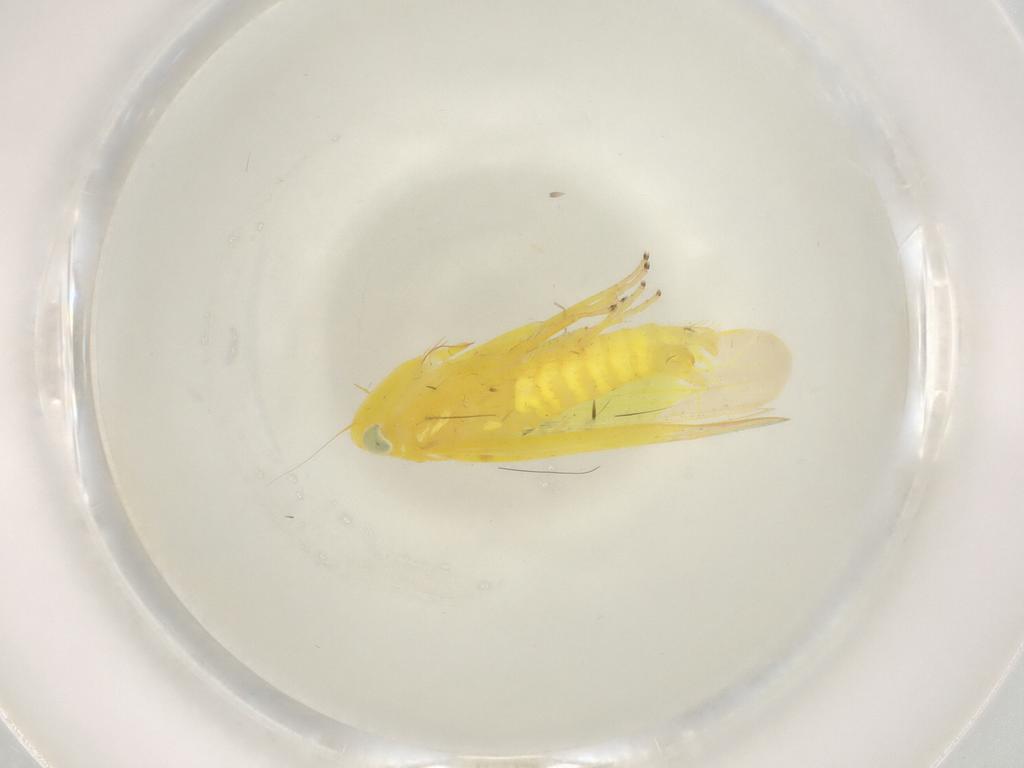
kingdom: Animalia
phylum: Arthropoda
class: Insecta
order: Hemiptera
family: Cicadellidae
